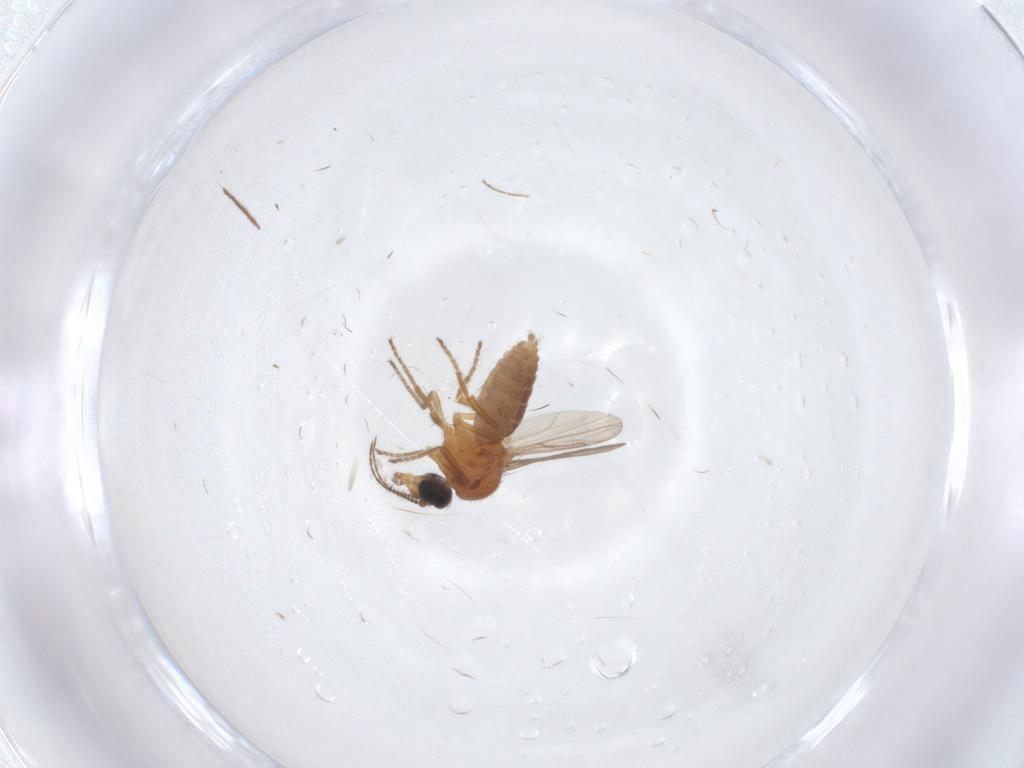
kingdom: Animalia
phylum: Arthropoda
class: Insecta
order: Diptera
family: Ceratopogonidae
